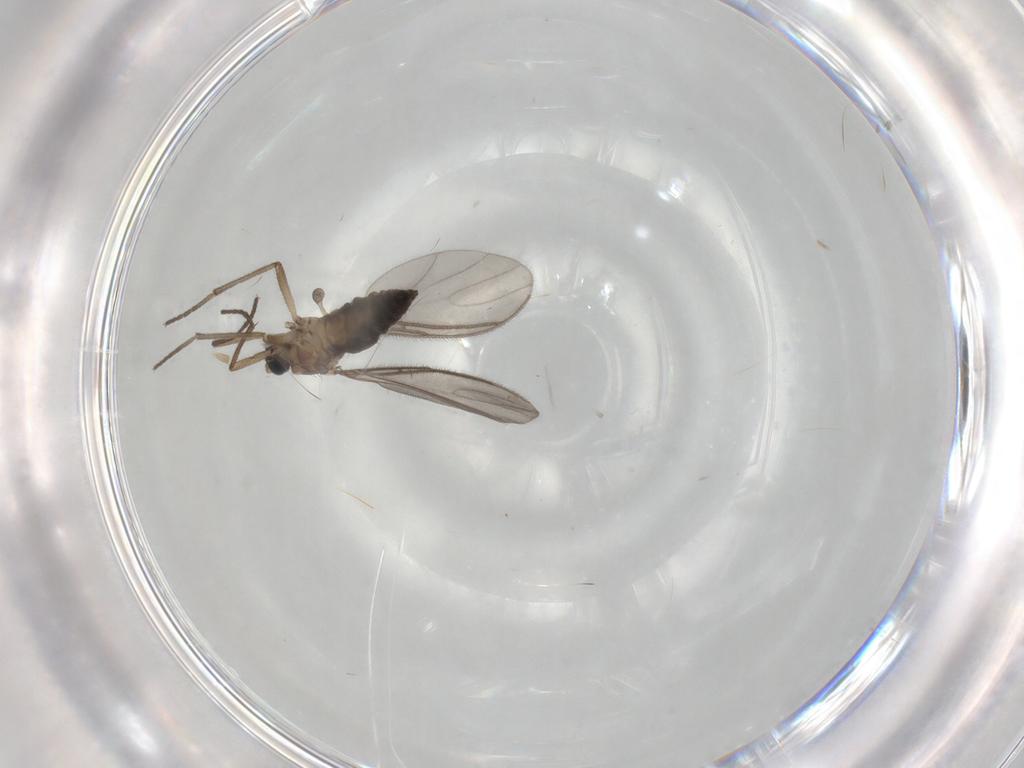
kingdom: Animalia
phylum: Arthropoda
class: Insecta
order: Diptera
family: Sciaridae
